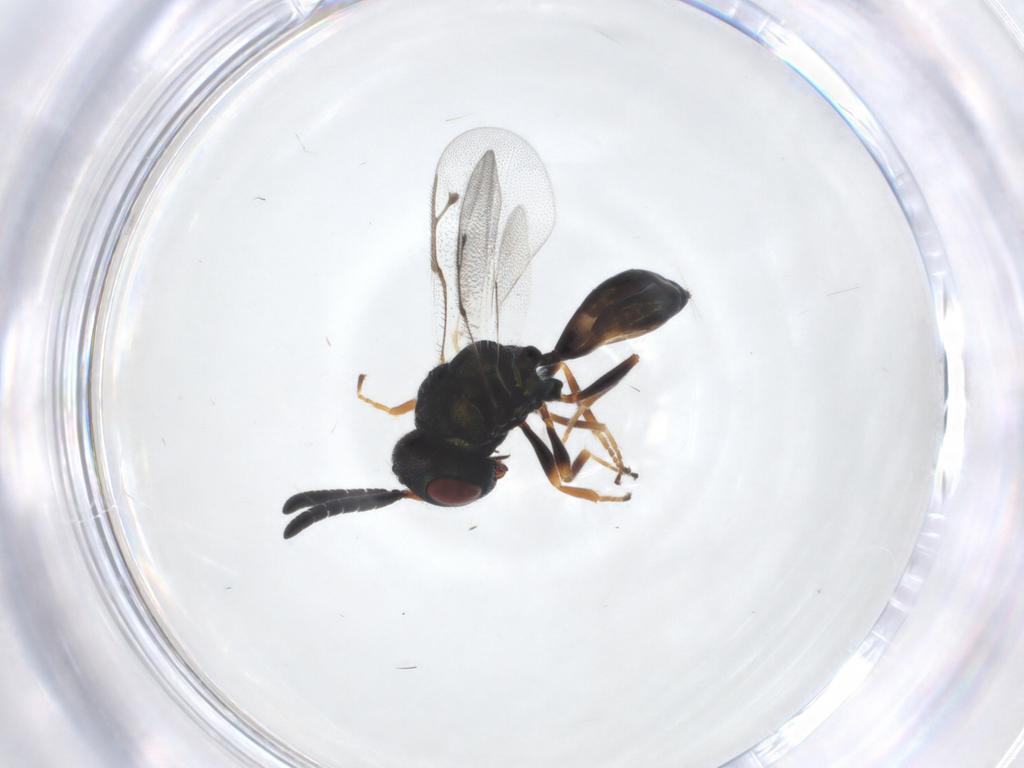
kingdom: Animalia
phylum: Arthropoda
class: Insecta
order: Hymenoptera
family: Pteromalidae
